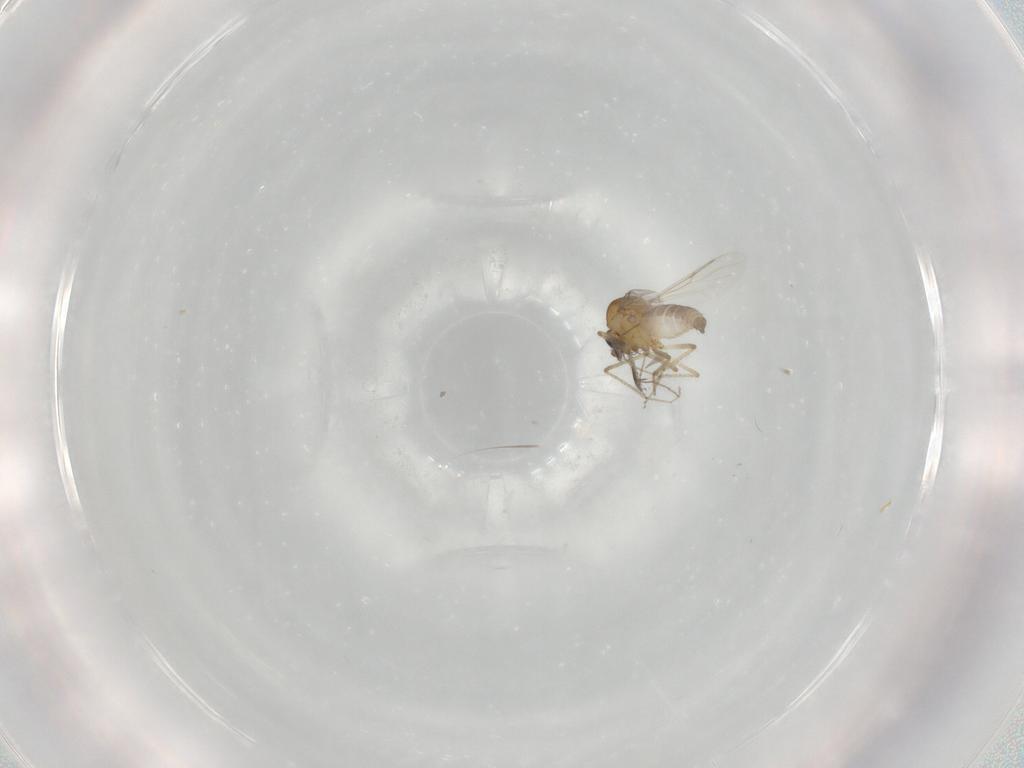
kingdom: Animalia
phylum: Arthropoda
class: Insecta
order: Diptera
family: Ceratopogonidae
